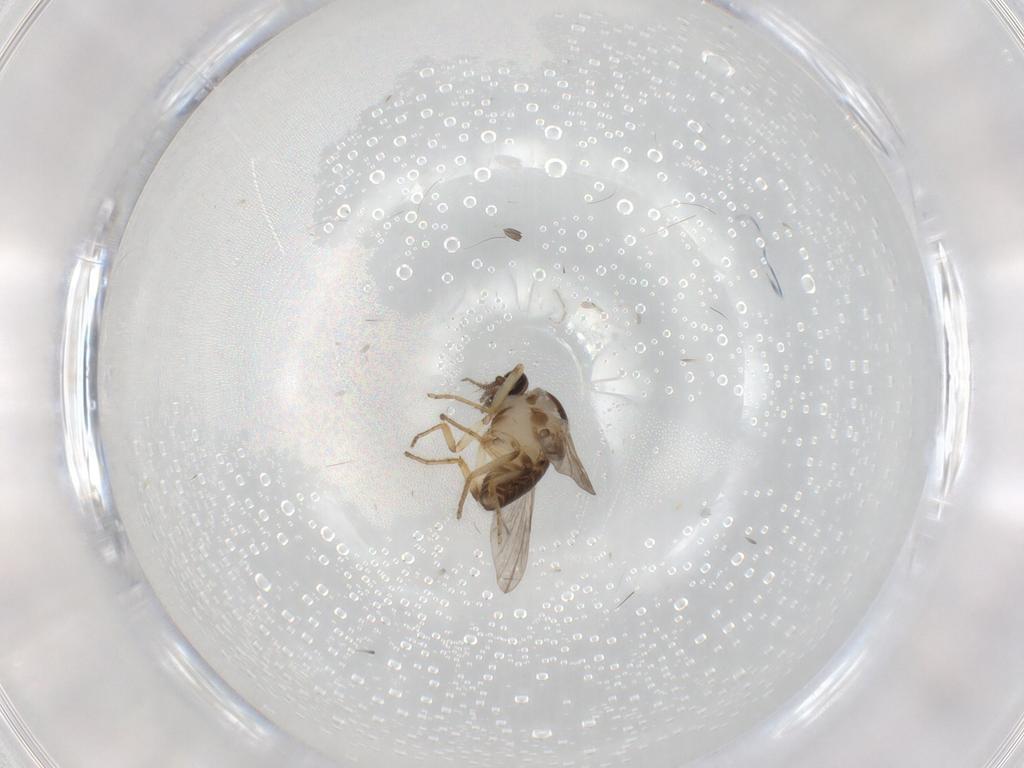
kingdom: Animalia
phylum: Arthropoda
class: Insecta
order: Diptera
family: Ceratopogonidae
